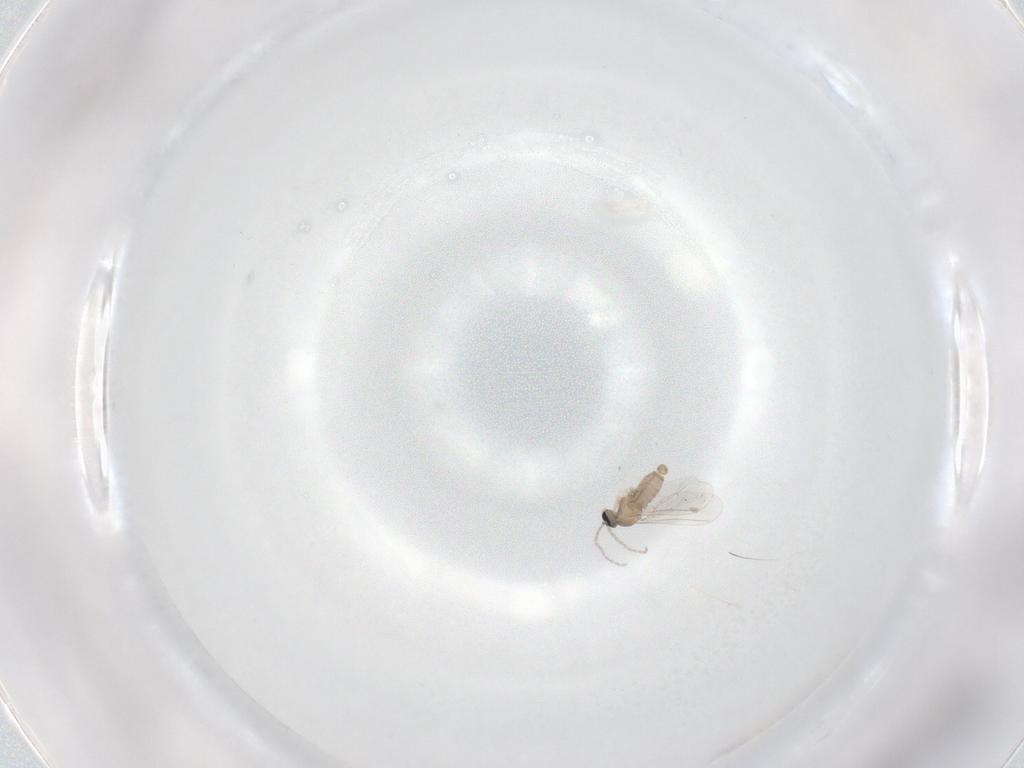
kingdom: Animalia
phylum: Arthropoda
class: Insecta
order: Diptera
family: Cecidomyiidae
